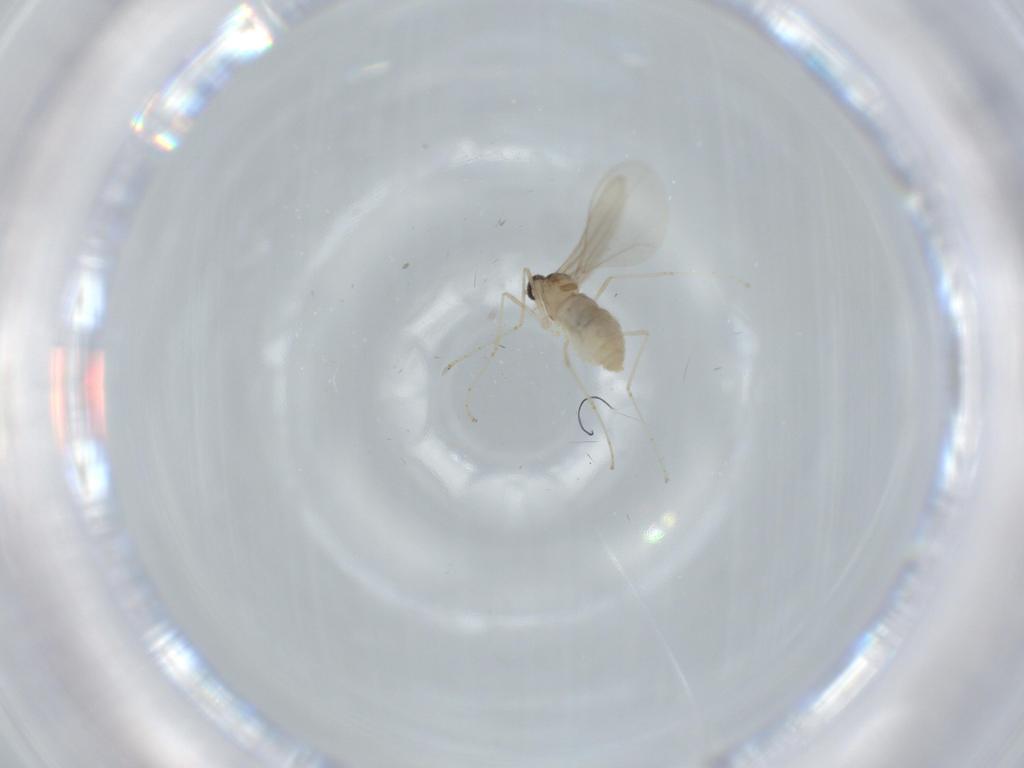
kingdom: Animalia
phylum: Arthropoda
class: Insecta
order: Diptera
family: Cecidomyiidae
